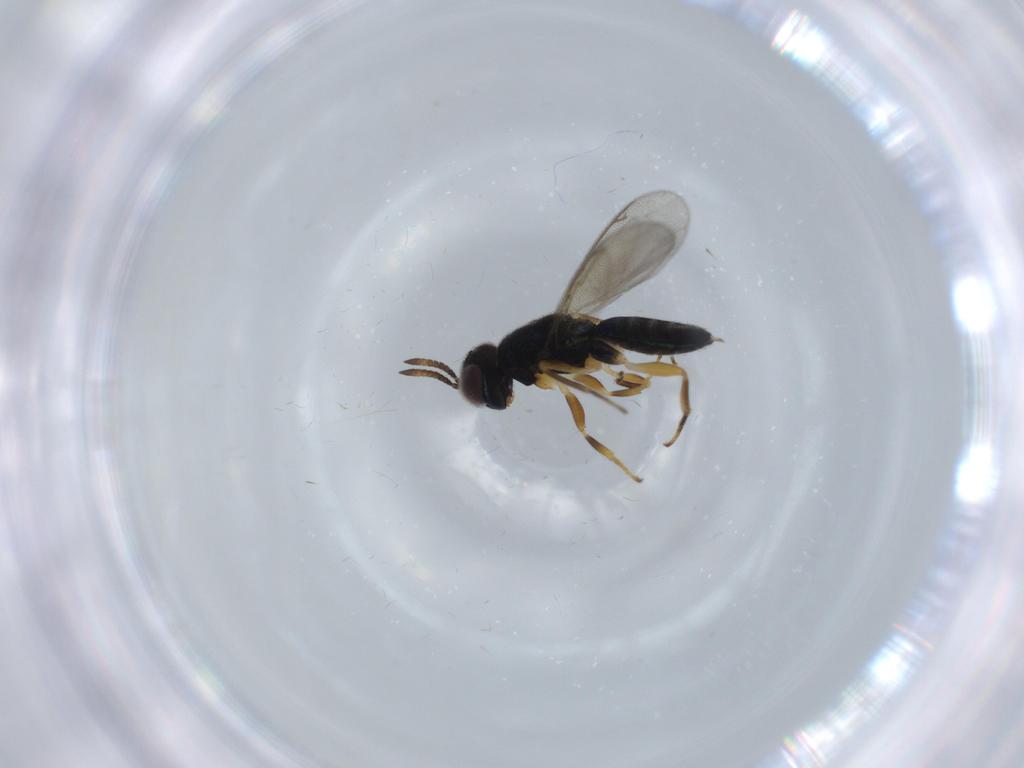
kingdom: Animalia
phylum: Arthropoda
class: Insecta
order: Hymenoptera
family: Pteromalidae
